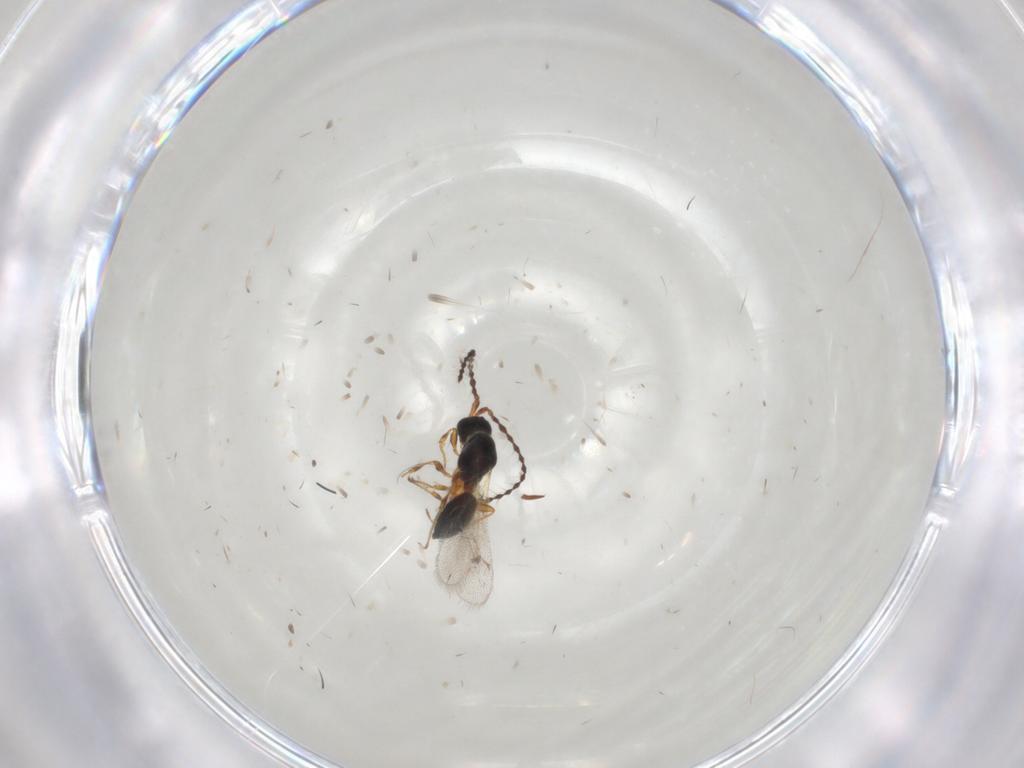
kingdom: Animalia
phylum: Arthropoda
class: Insecta
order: Hymenoptera
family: Diapriidae
